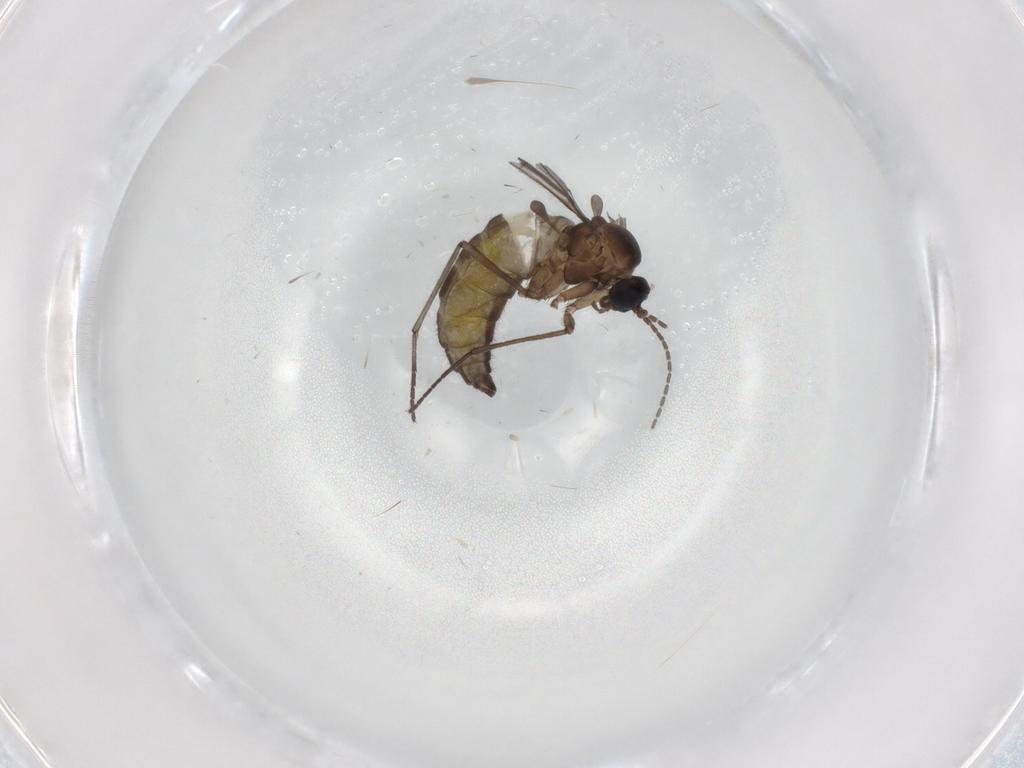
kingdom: Animalia
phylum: Arthropoda
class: Insecta
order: Diptera
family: Sciaridae
